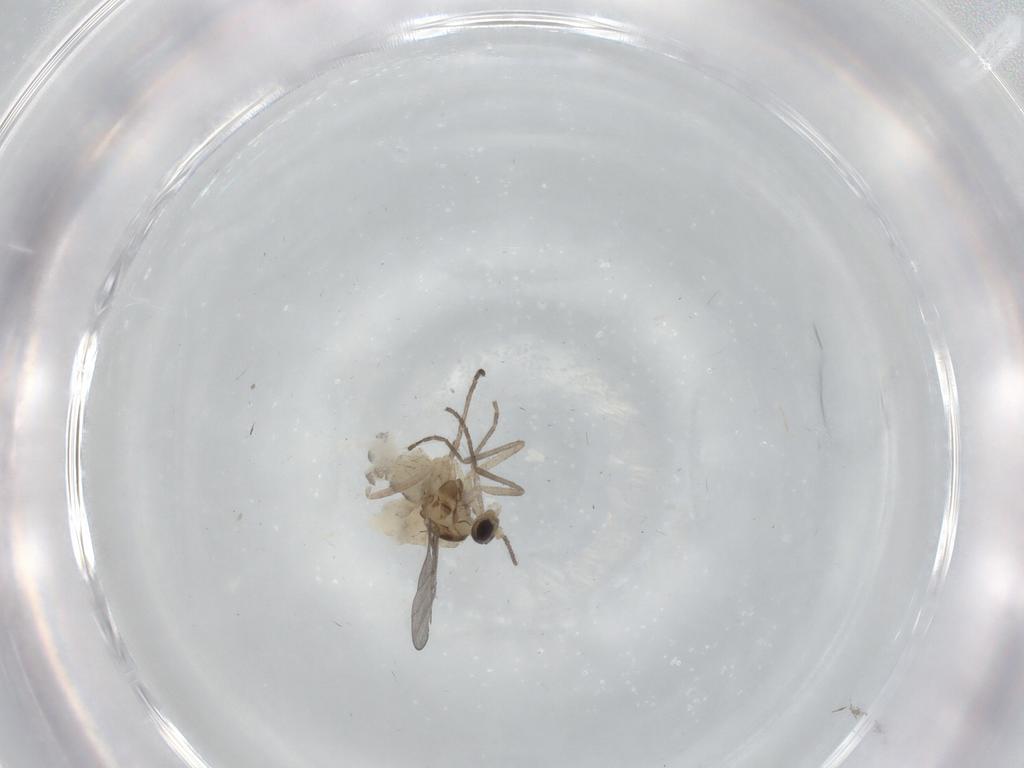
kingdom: Animalia
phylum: Arthropoda
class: Insecta
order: Diptera
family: Cecidomyiidae
